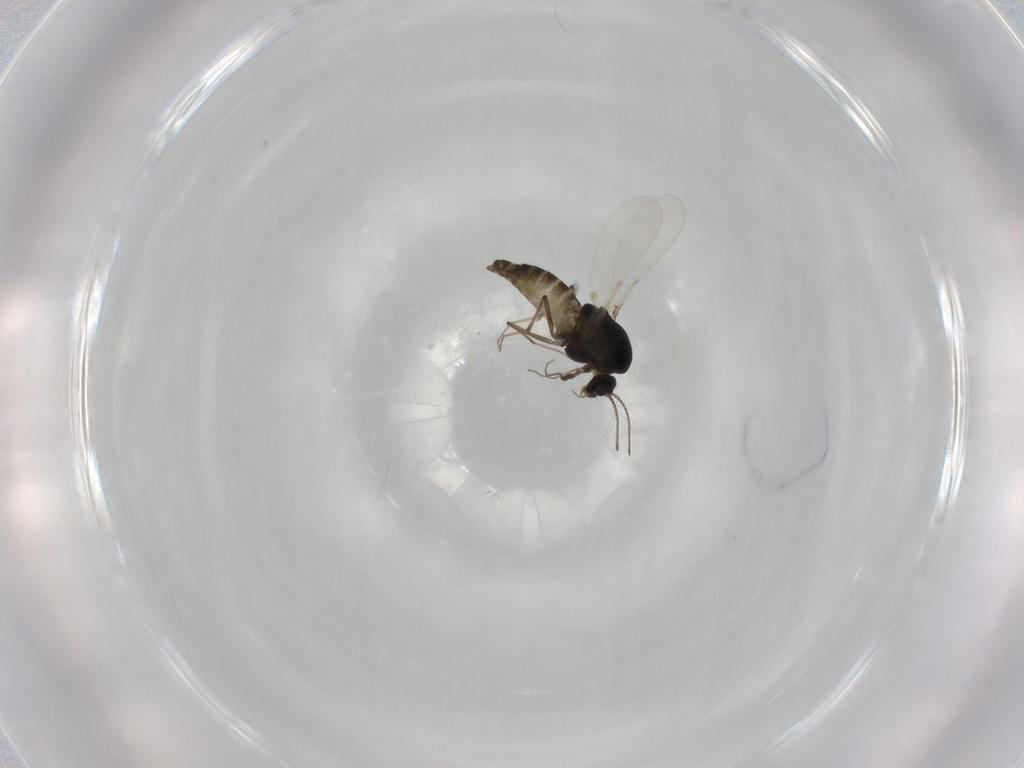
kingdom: Animalia
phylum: Arthropoda
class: Insecta
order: Diptera
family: Chironomidae
